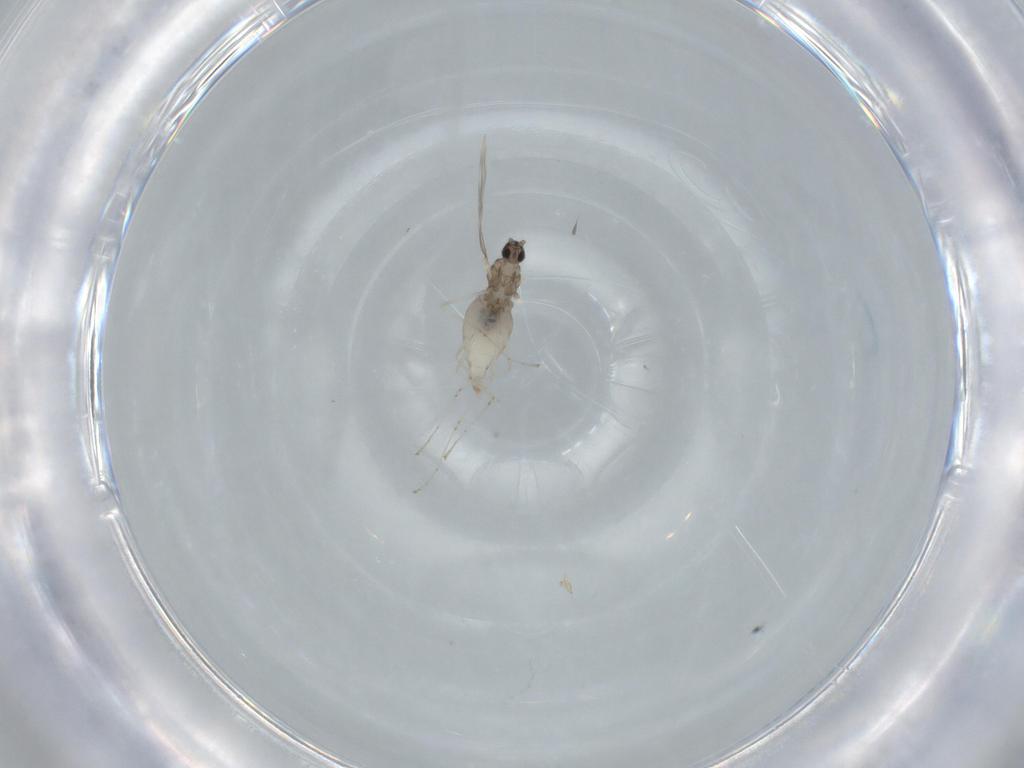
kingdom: Animalia
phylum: Arthropoda
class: Insecta
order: Diptera
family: Cecidomyiidae
